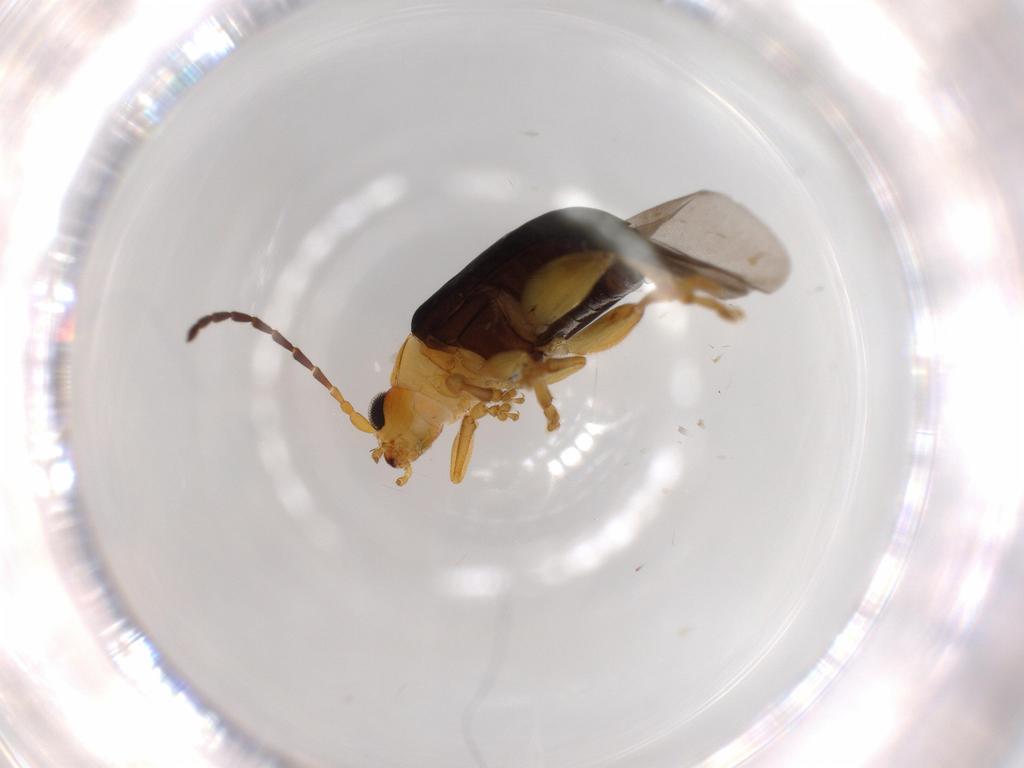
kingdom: Animalia
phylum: Arthropoda
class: Insecta
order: Coleoptera
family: Chrysomelidae
